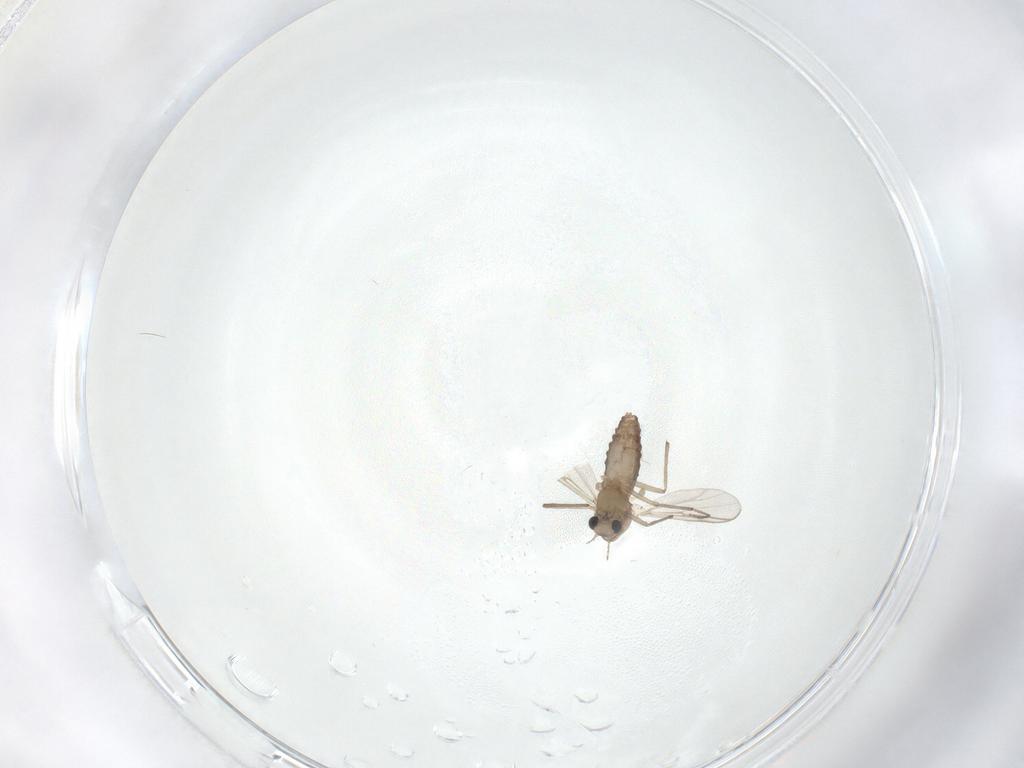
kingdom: Animalia
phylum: Arthropoda
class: Insecta
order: Diptera
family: Chironomidae
